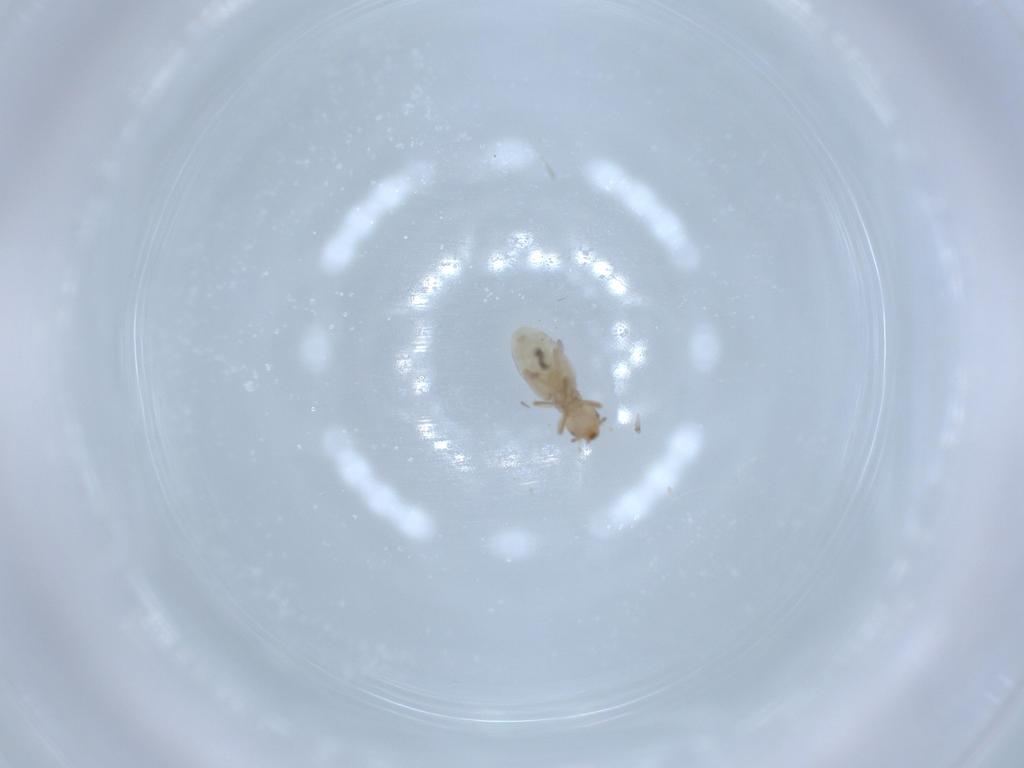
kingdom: Animalia
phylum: Arthropoda
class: Insecta
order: Psocodea
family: Liposcelididae
